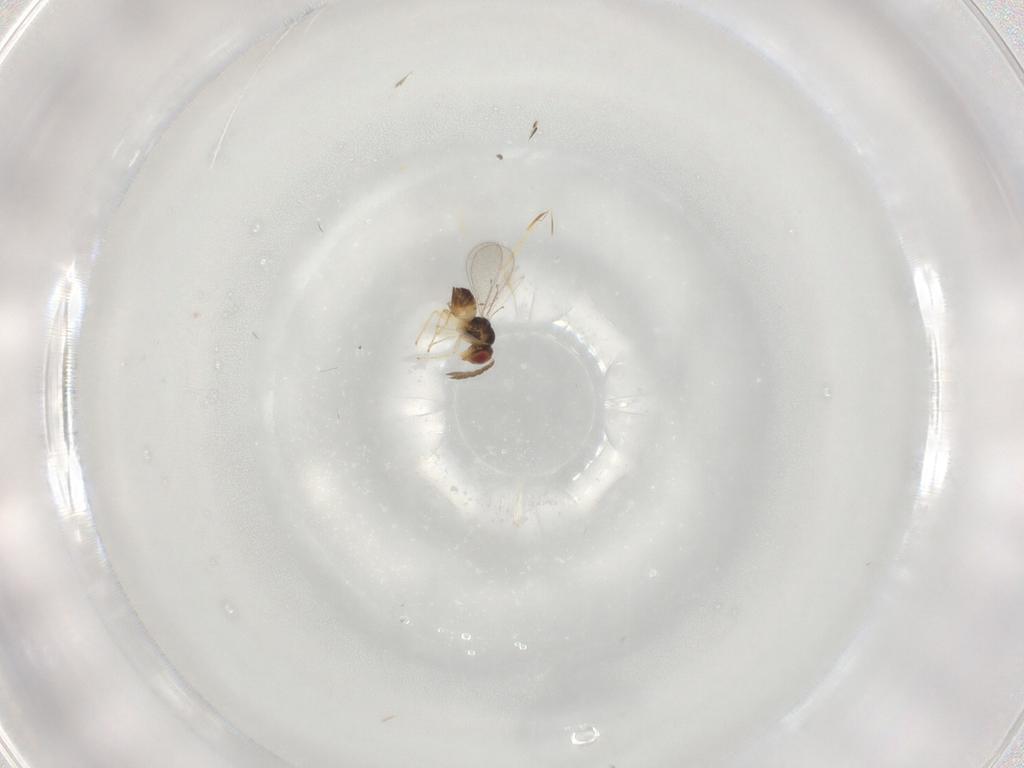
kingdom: Animalia
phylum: Arthropoda
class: Insecta
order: Hymenoptera
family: Eulophidae
